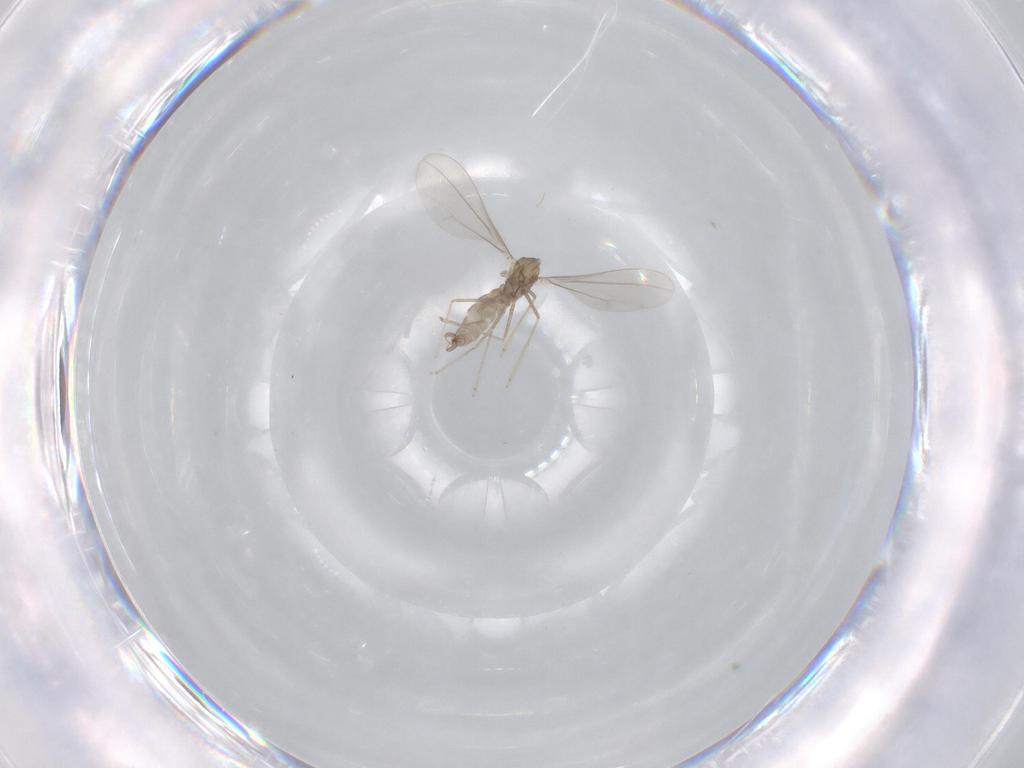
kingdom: Animalia
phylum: Arthropoda
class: Insecta
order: Diptera
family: Cecidomyiidae
